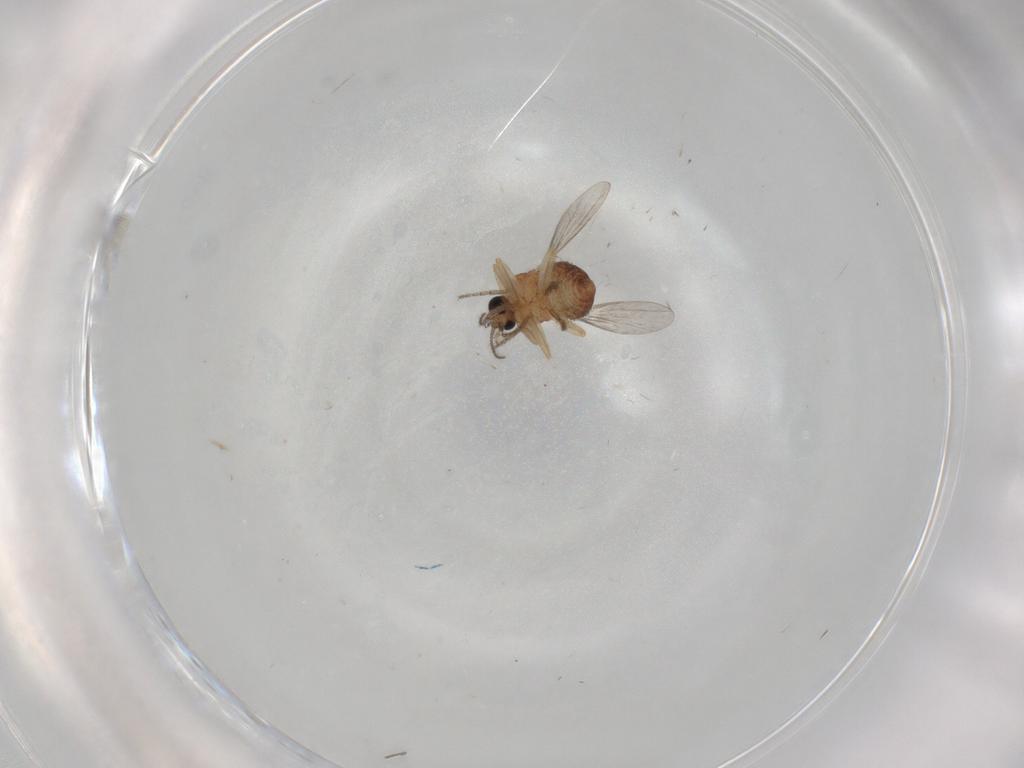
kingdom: Animalia
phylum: Arthropoda
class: Insecta
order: Diptera
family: Ceratopogonidae
